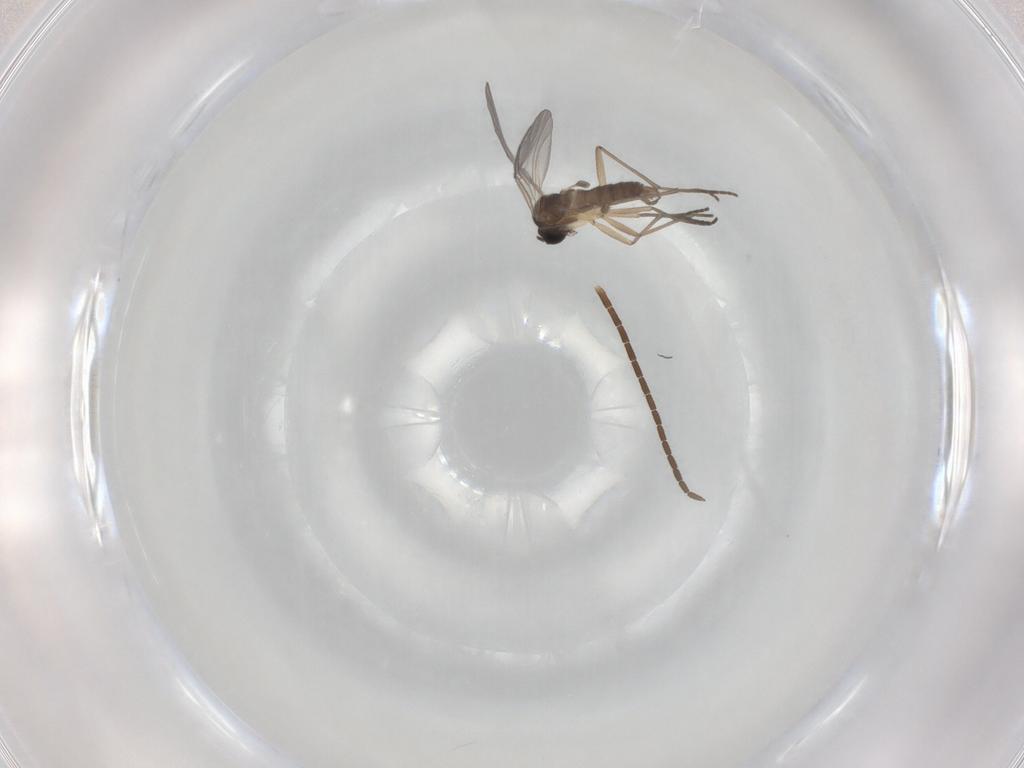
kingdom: Animalia
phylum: Arthropoda
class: Insecta
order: Diptera
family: Sciaridae
